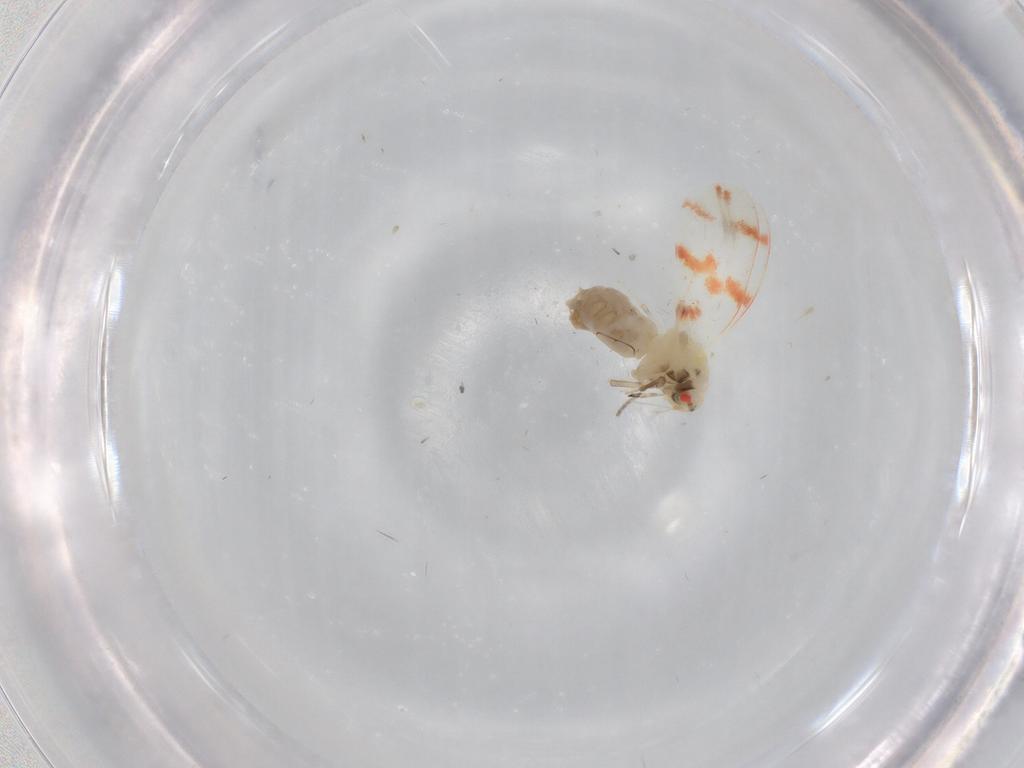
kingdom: Animalia
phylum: Arthropoda
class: Insecta
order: Hemiptera
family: Aleyrodidae
